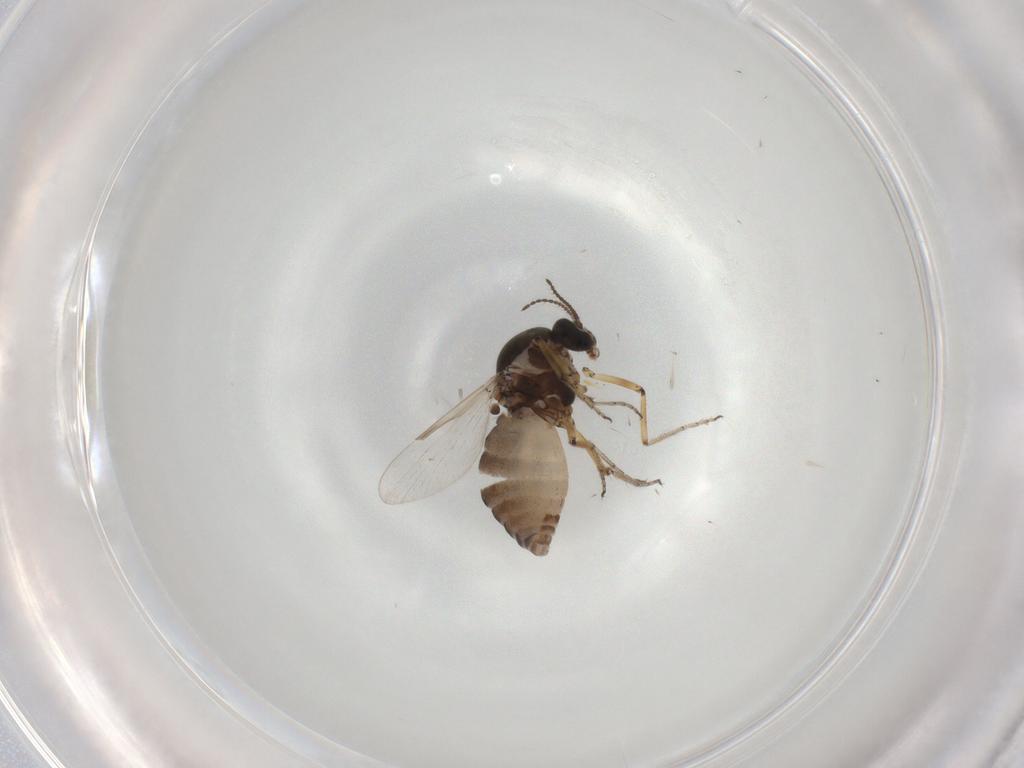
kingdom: Animalia
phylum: Arthropoda
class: Insecta
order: Diptera
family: Ceratopogonidae
